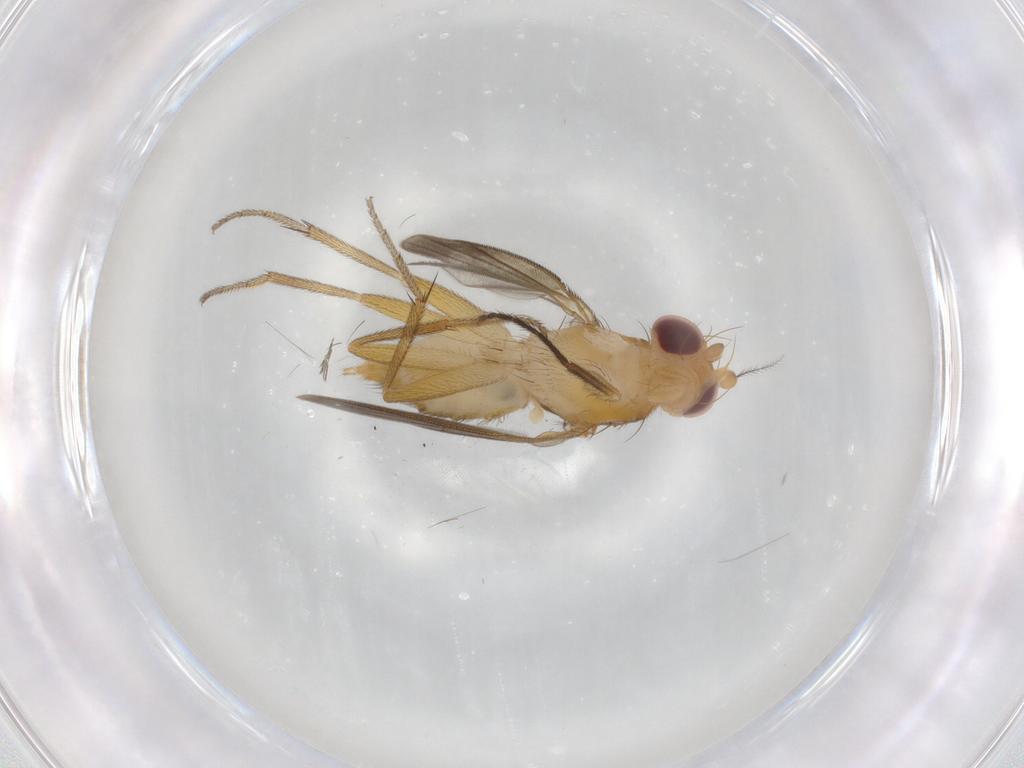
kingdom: Animalia
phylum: Arthropoda
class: Insecta
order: Diptera
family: Clusiidae
